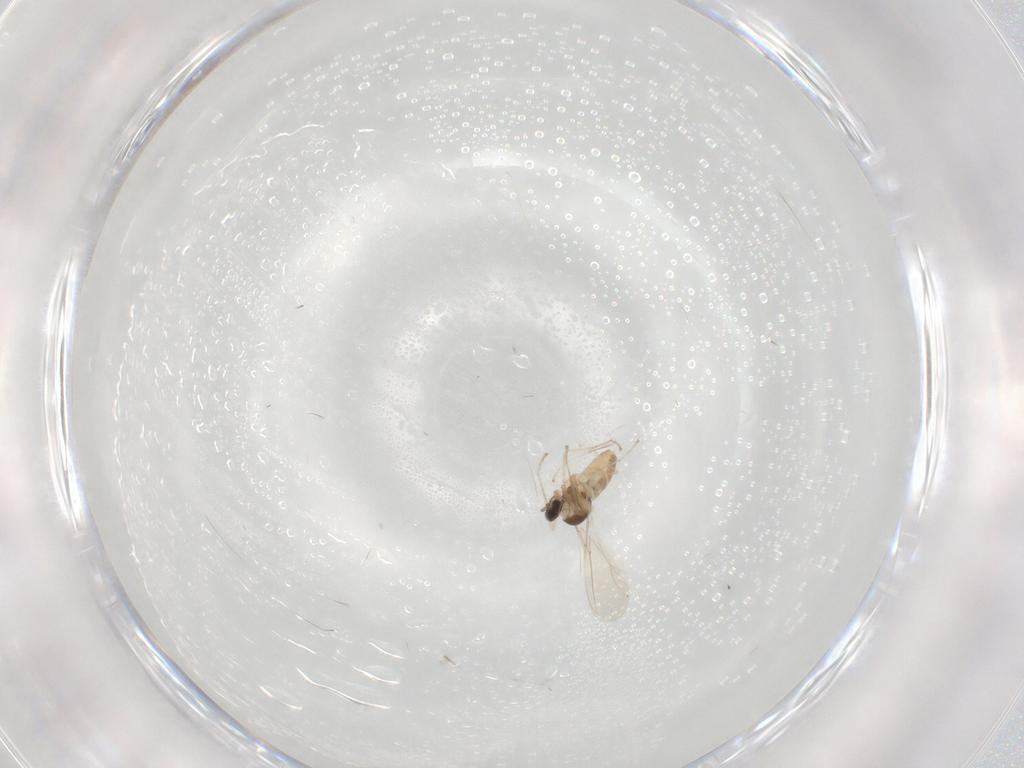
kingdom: Animalia
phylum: Arthropoda
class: Insecta
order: Diptera
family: Cecidomyiidae
